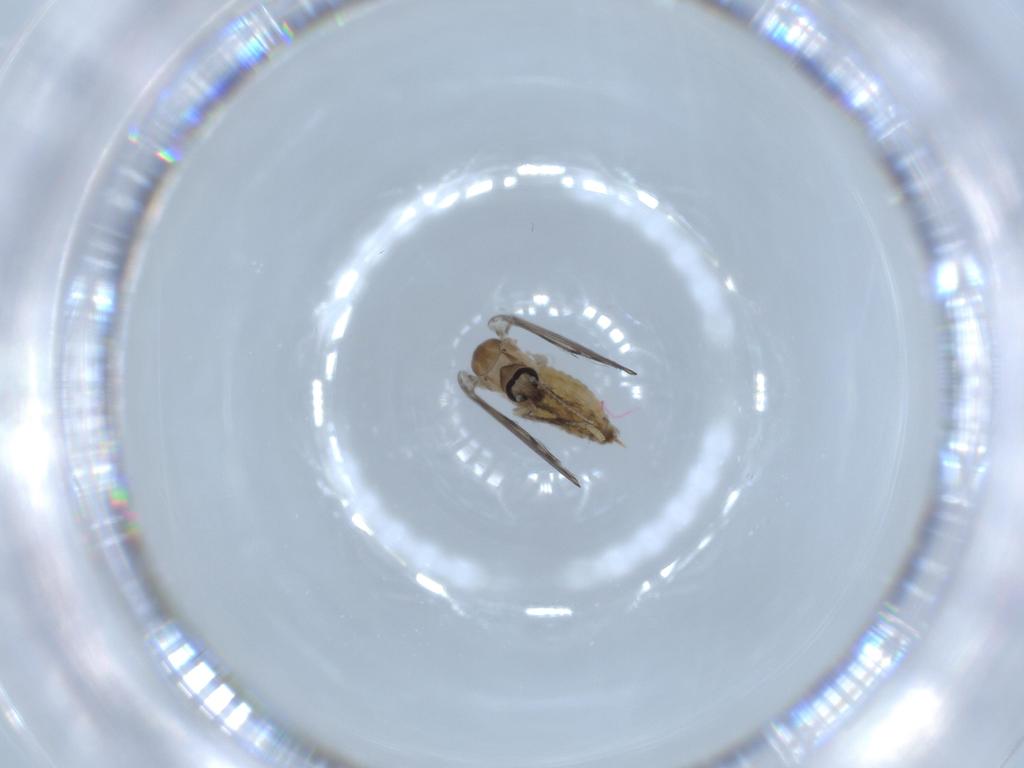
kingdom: Animalia
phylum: Arthropoda
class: Insecta
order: Diptera
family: Psychodidae
